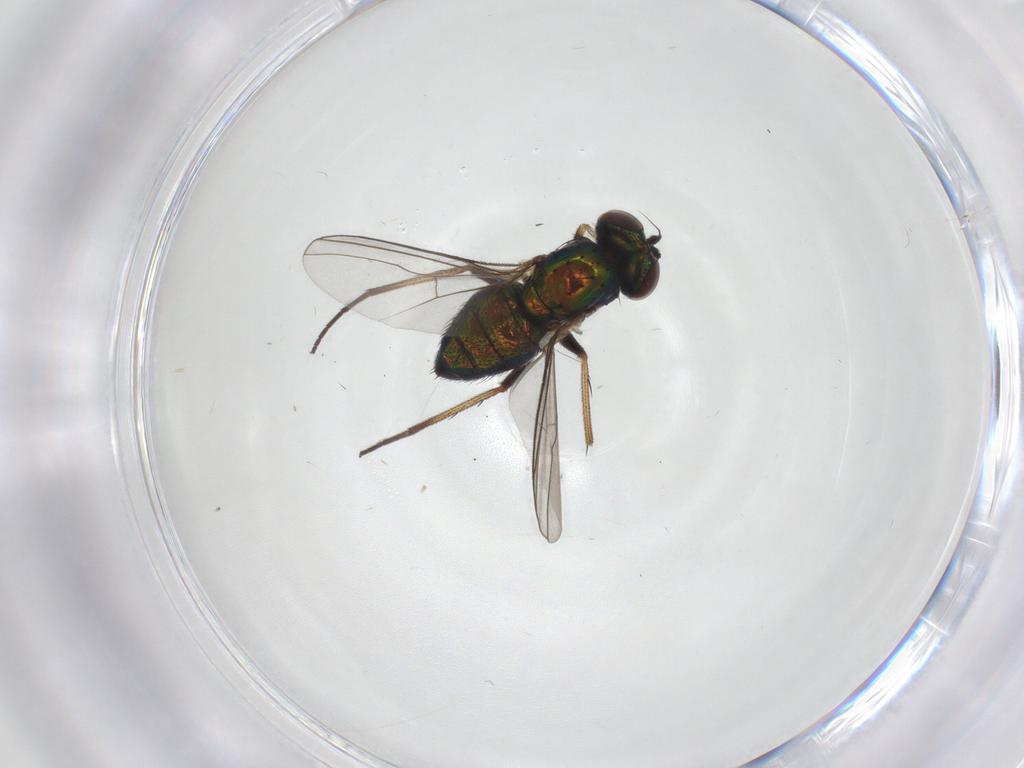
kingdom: Animalia
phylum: Arthropoda
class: Insecta
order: Diptera
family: Dolichopodidae
